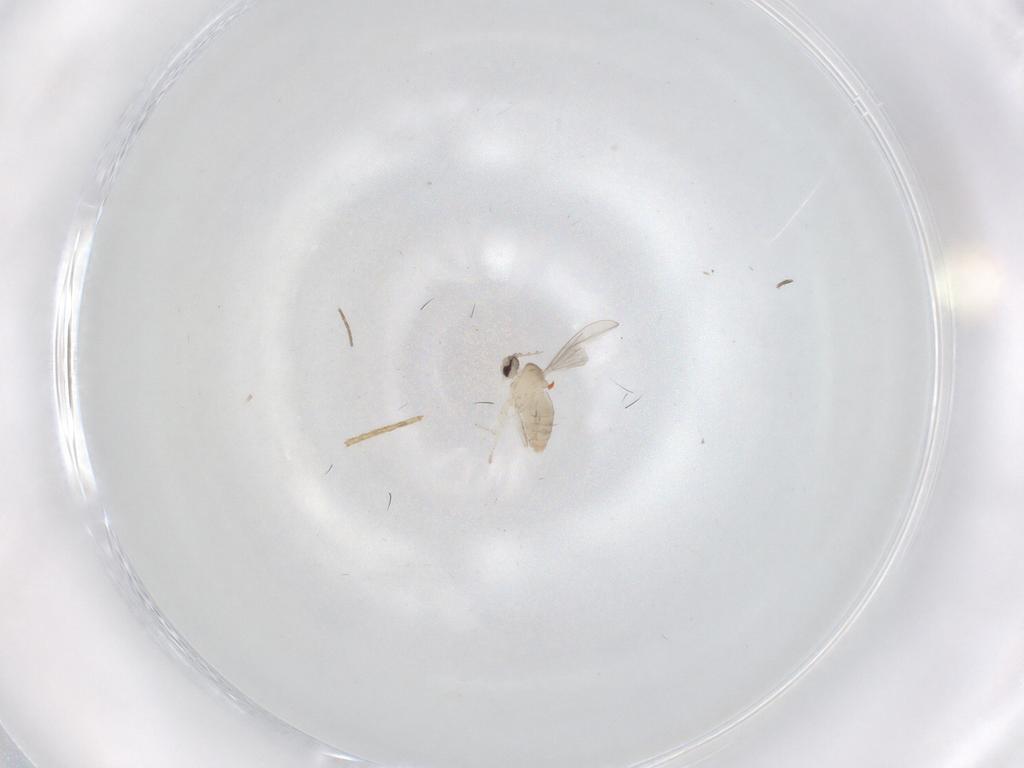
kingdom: Animalia
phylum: Arthropoda
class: Insecta
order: Diptera
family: Cecidomyiidae
